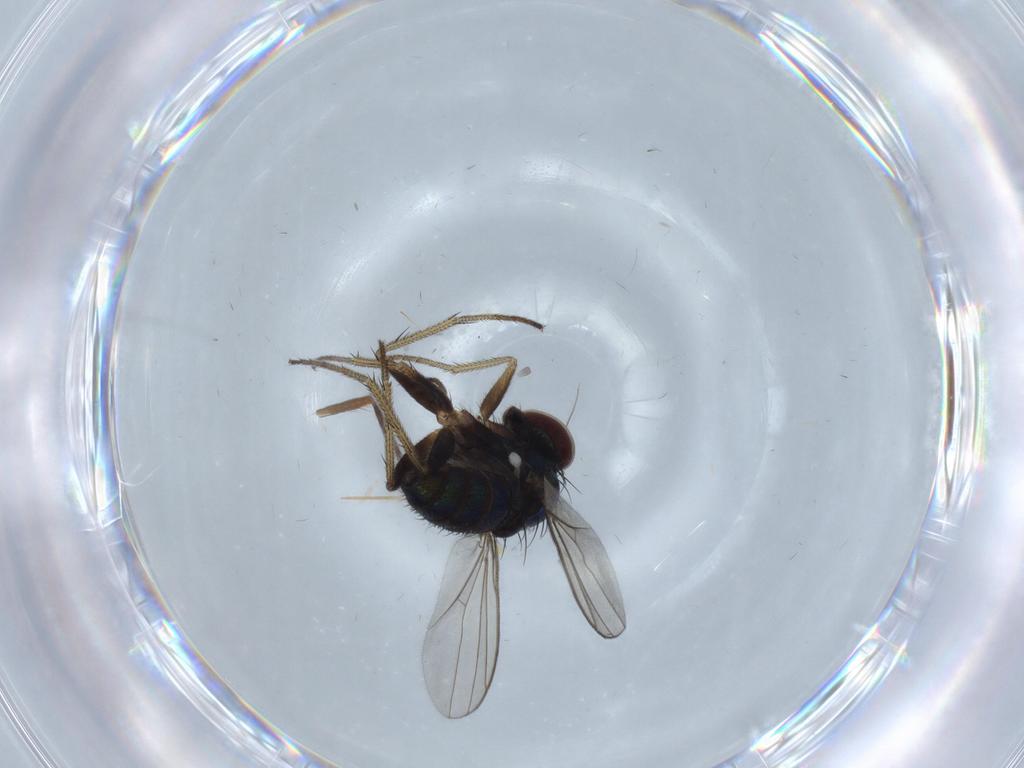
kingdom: Animalia
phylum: Arthropoda
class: Insecta
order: Diptera
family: Dolichopodidae
